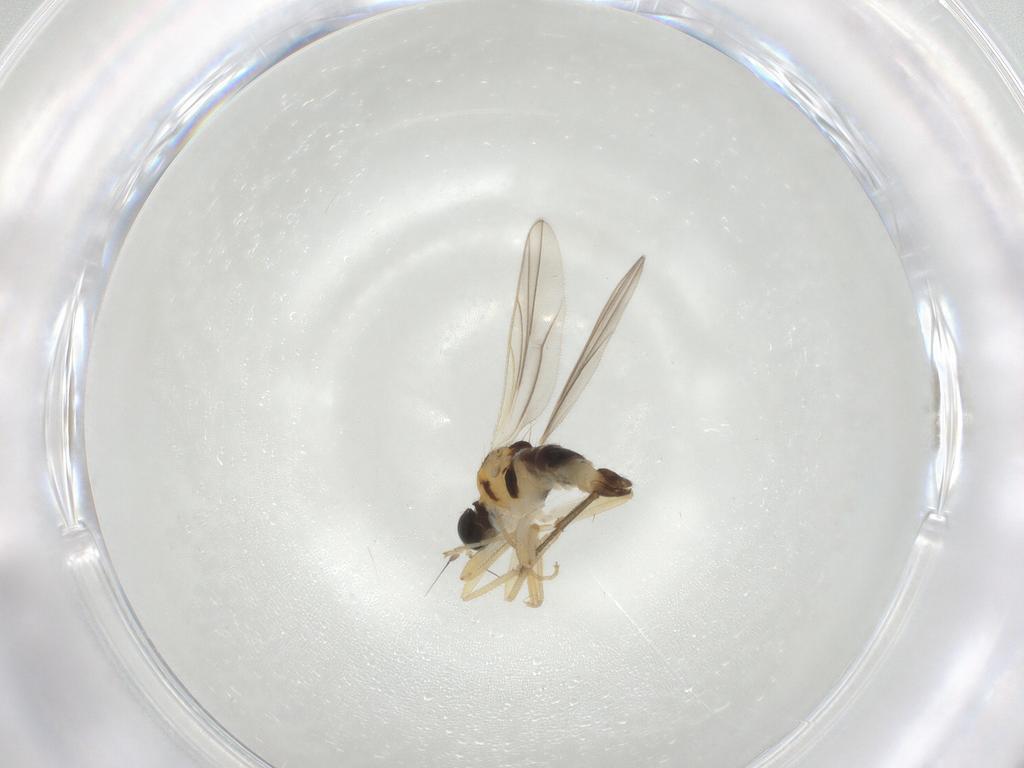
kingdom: Animalia
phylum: Arthropoda
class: Insecta
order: Diptera
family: Hybotidae
